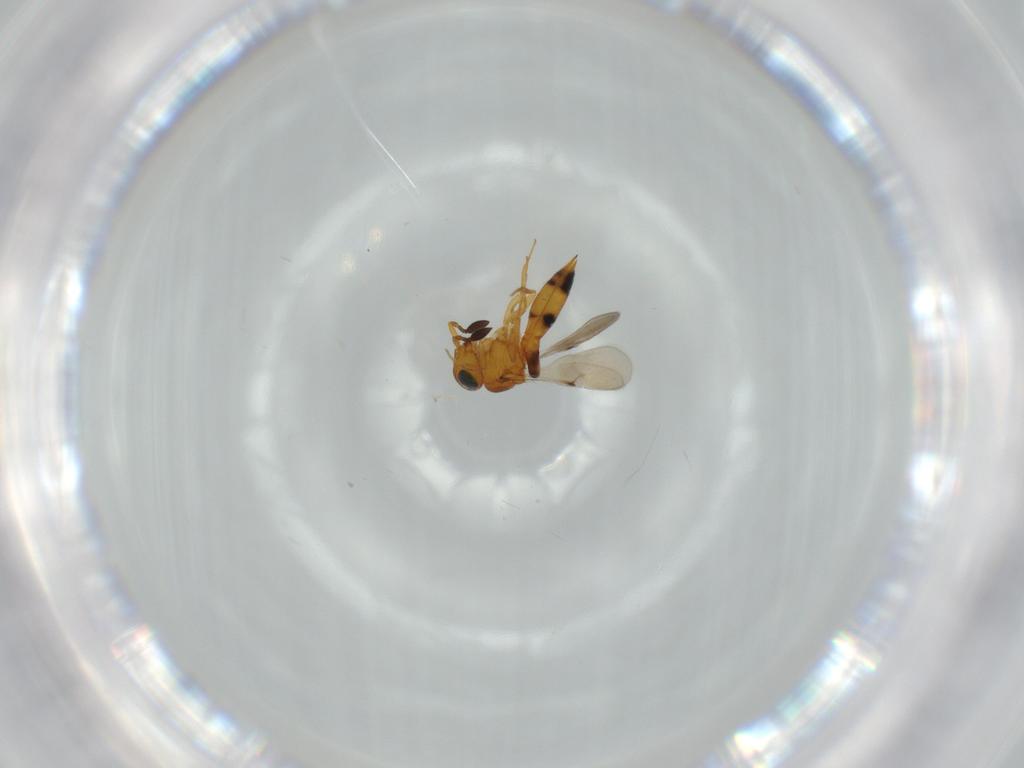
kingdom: Animalia
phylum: Arthropoda
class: Insecta
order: Hymenoptera
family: Scelionidae
